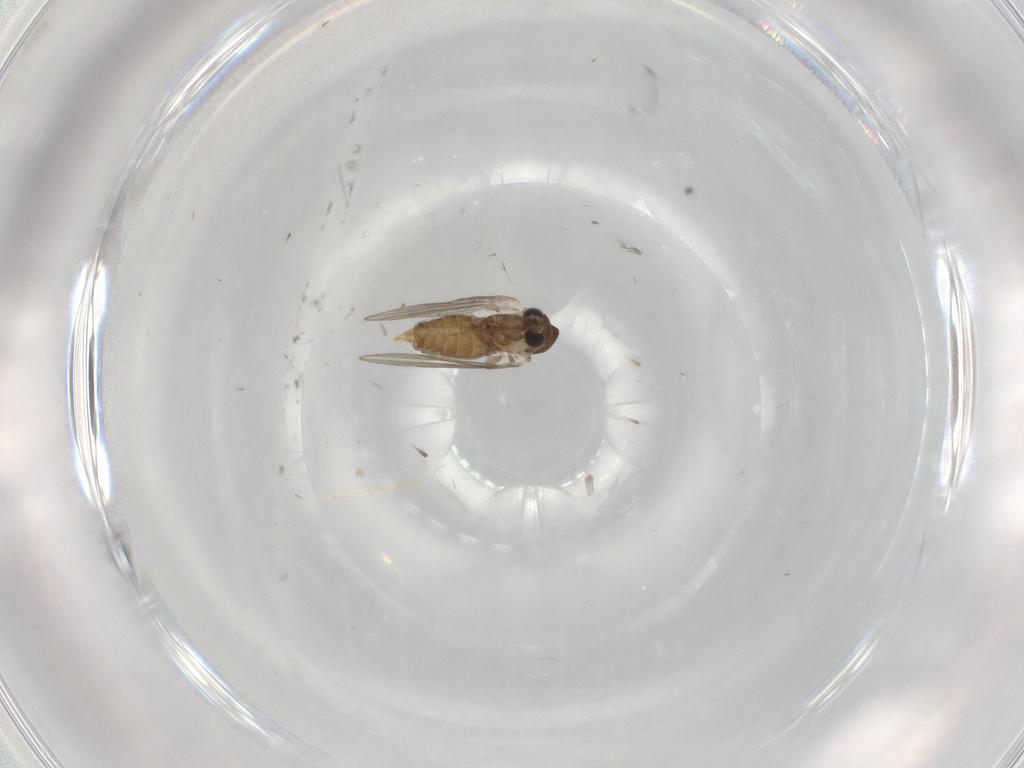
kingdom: Animalia
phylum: Arthropoda
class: Insecta
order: Diptera
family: Psychodidae
